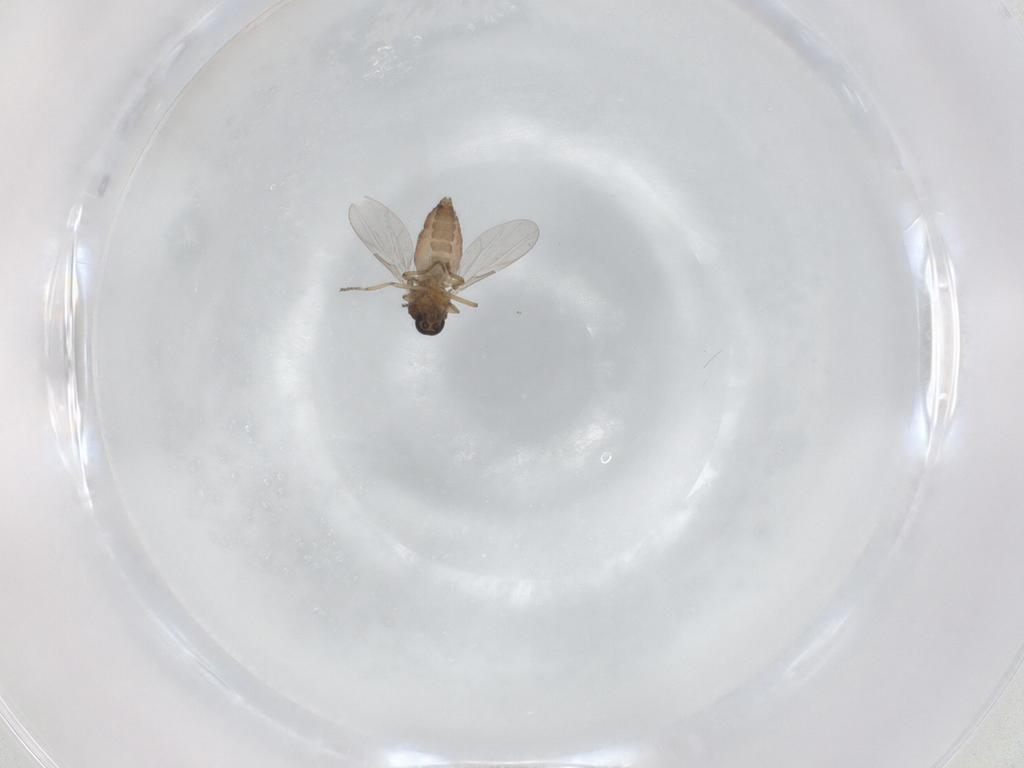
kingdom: Animalia
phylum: Arthropoda
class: Insecta
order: Diptera
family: Ceratopogonidae
